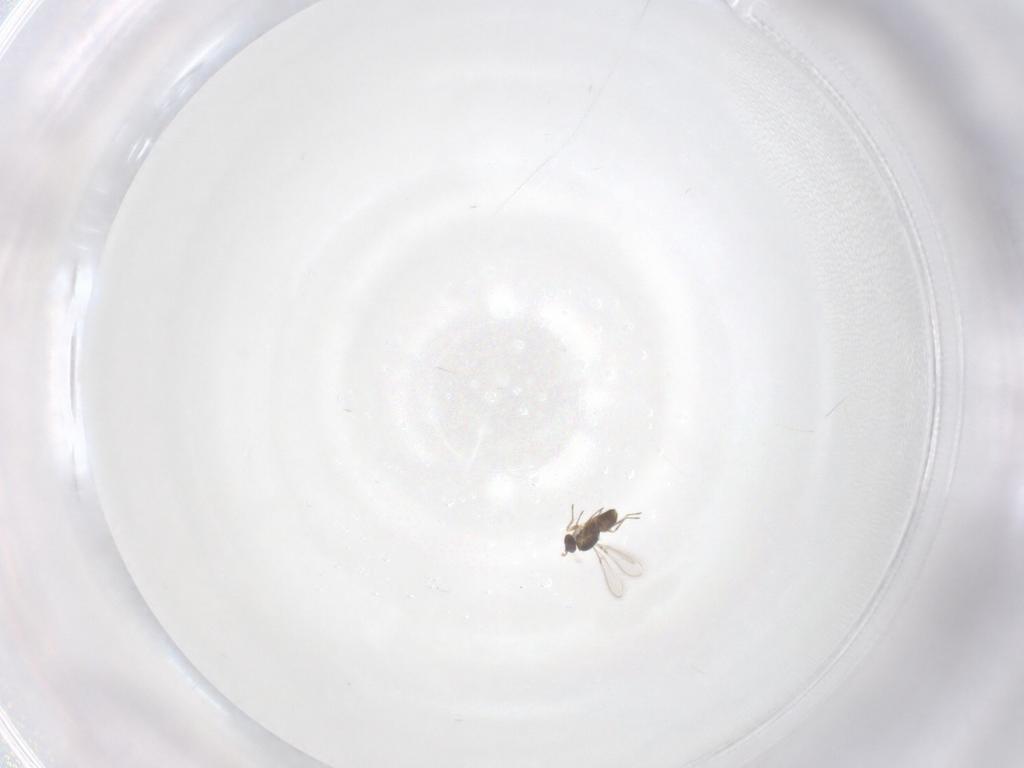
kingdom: Animalia
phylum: Arthropoda
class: Insecta
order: Hymenoptera
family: Mymaridae
